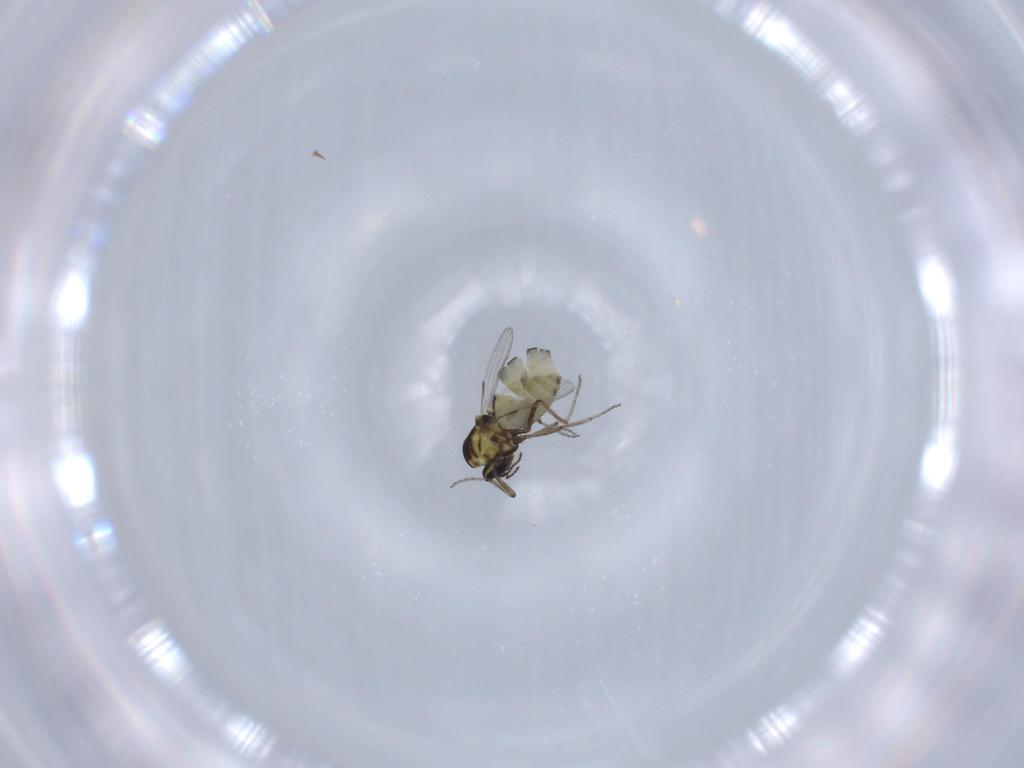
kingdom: Animalia
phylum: Arthropoda
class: Insecta
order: Diptera
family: Ceratopogonidae
